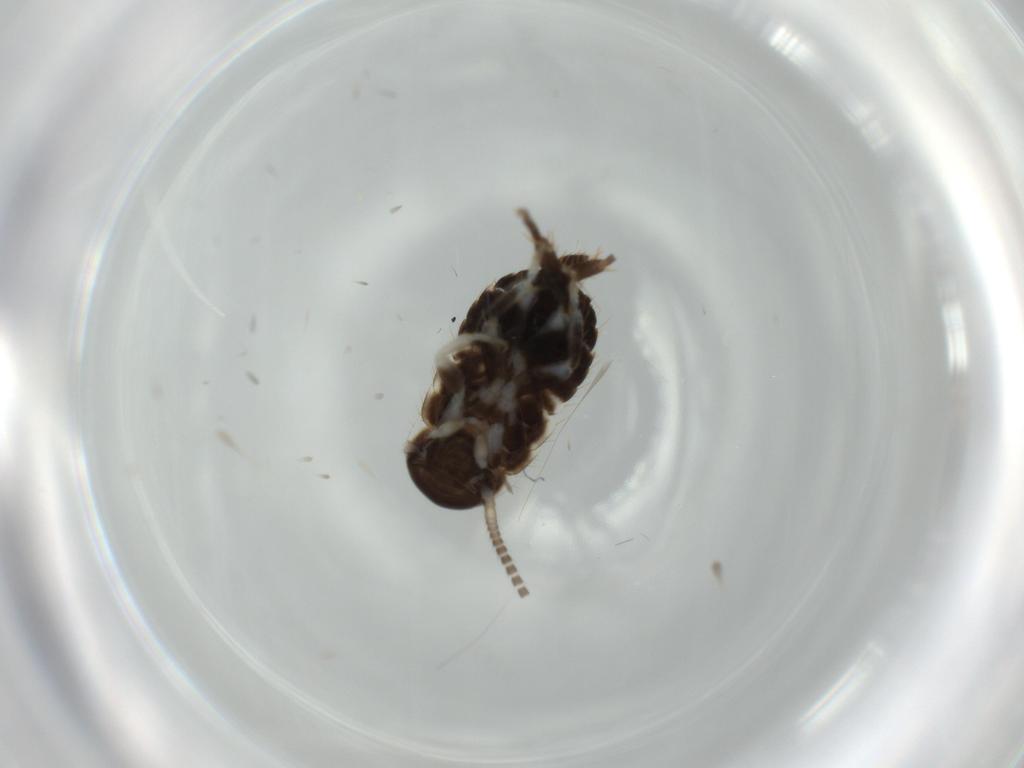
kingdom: Animalia
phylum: Arthropoda
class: Insecta
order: Blattodea
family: Ectobiidae
